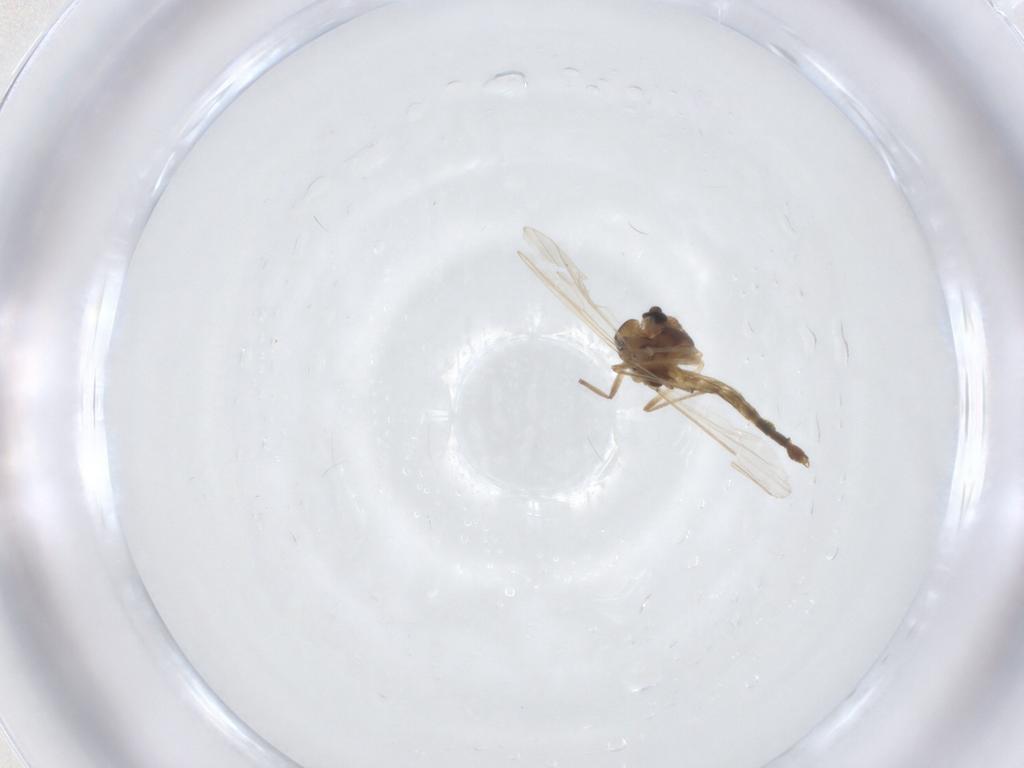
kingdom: Animalia
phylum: Arthropoda
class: Insecta
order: Diptera
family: Chironomidae
